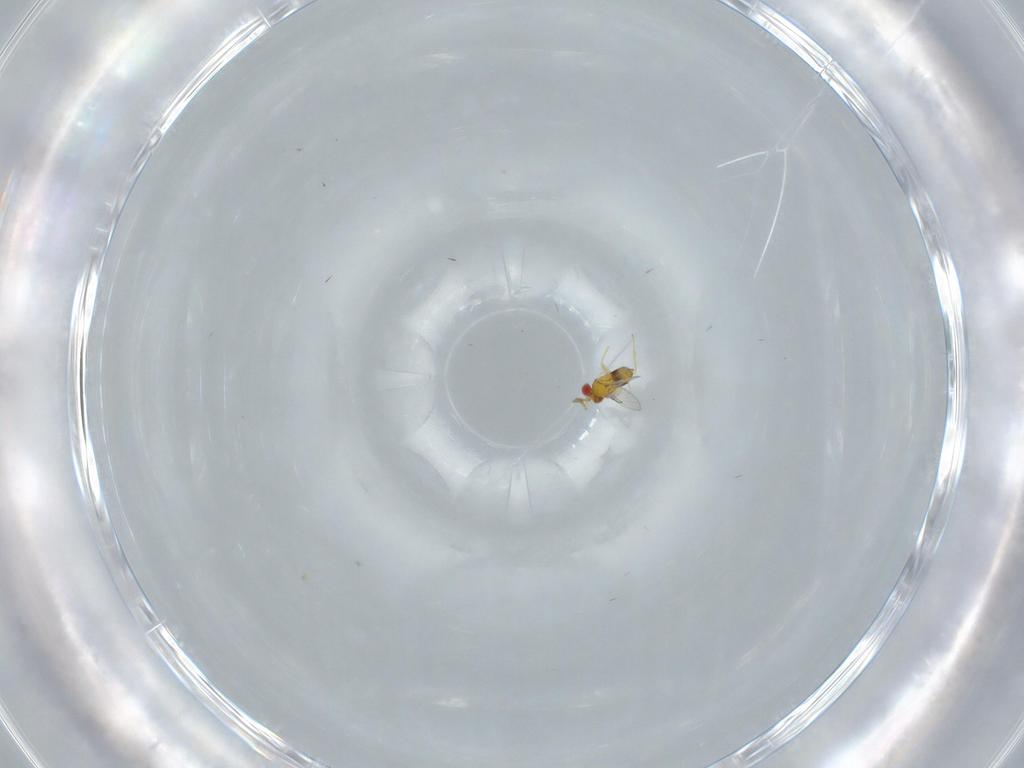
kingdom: Animalia
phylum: Arthropoda
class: Insecta
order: Hymenoptera
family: Trichogrammatidae
